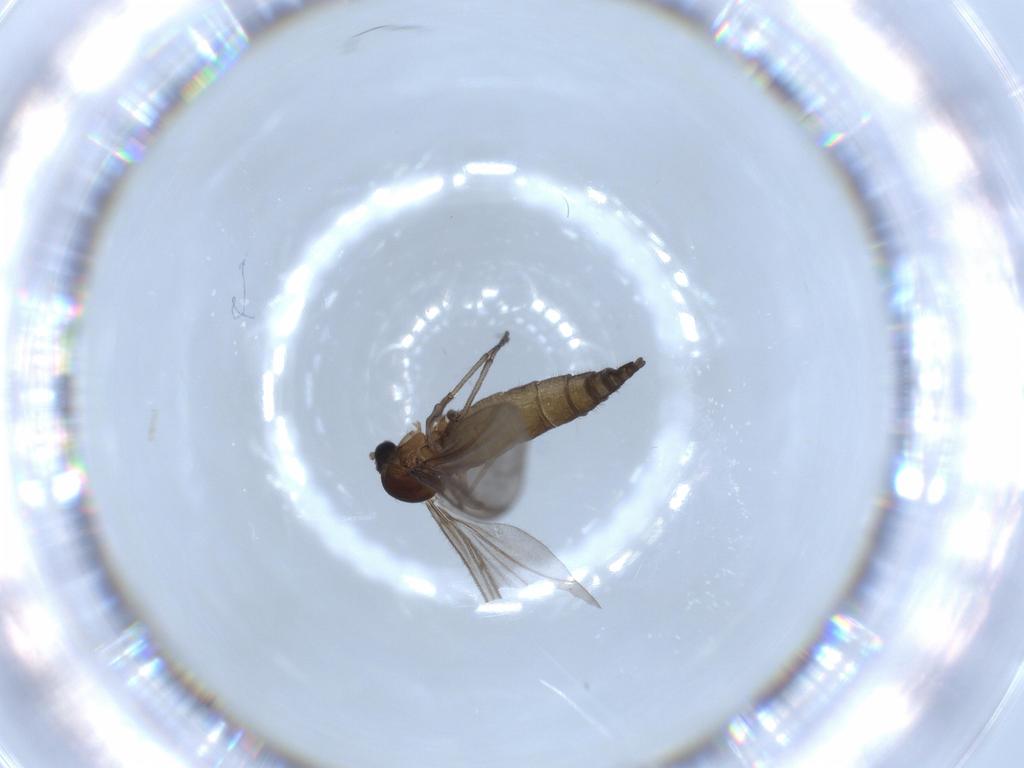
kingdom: Animalia
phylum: Arthropoda
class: Insecta
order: Diptera
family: Sciaridae
